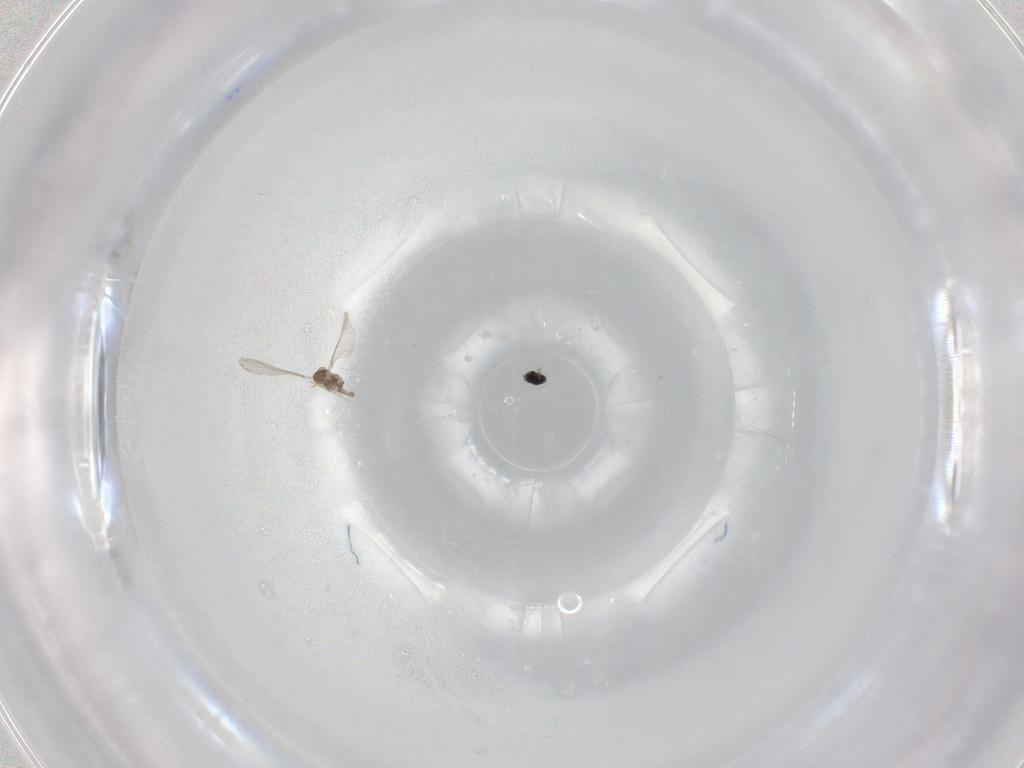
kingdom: Animalia
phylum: Arthropoda
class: Insecta
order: Diptera
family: Cecidomyiidae
